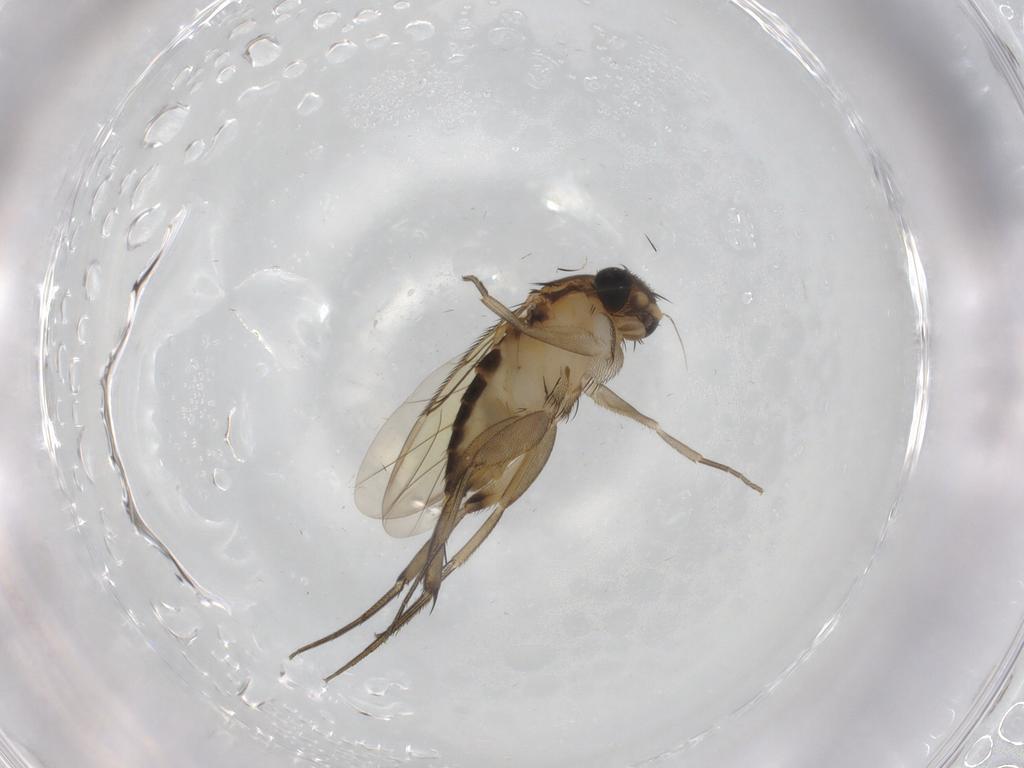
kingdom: Animalia
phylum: Arthropoda
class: Insecta
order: Diptera
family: Phoridae
